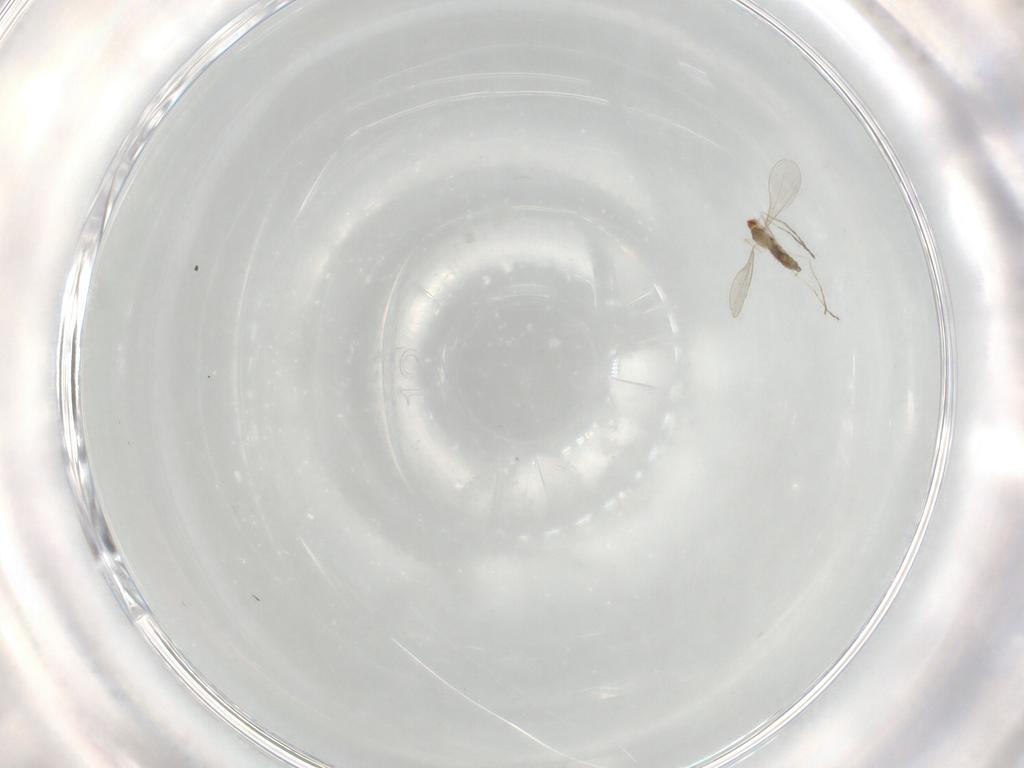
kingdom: Animalia
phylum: Arthropoda
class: Insecta
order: Diptera
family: Cecidomyiidae
